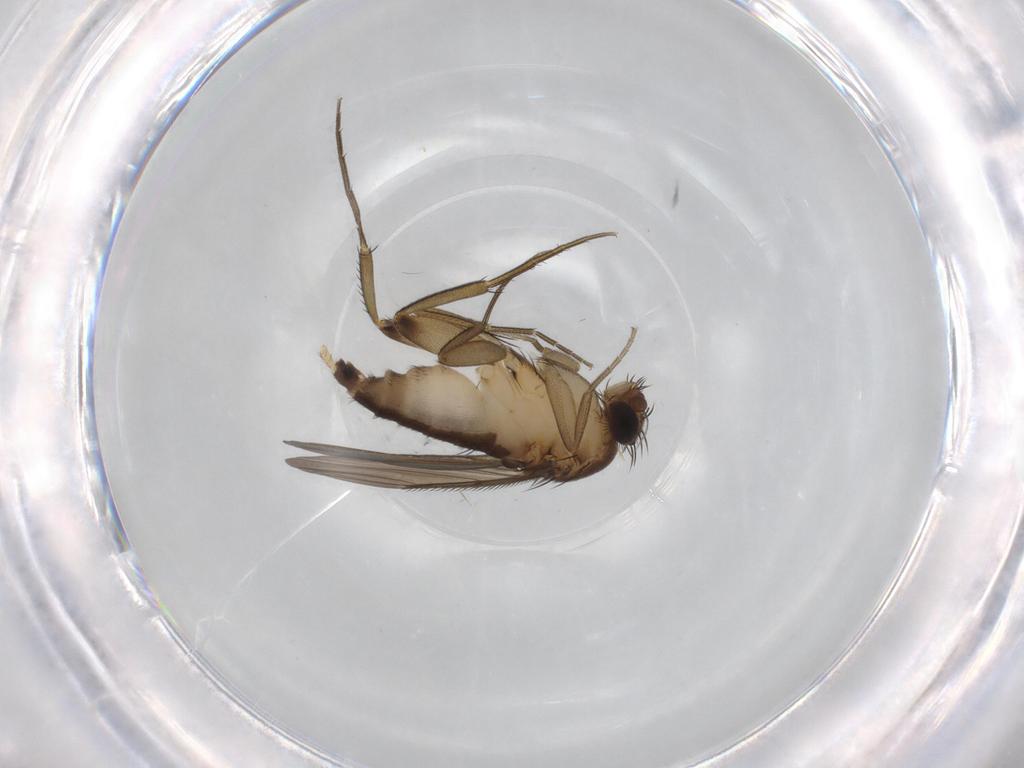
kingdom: Animalia
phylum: Arthropoda
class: Insecta
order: Diptera
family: Phoridae
